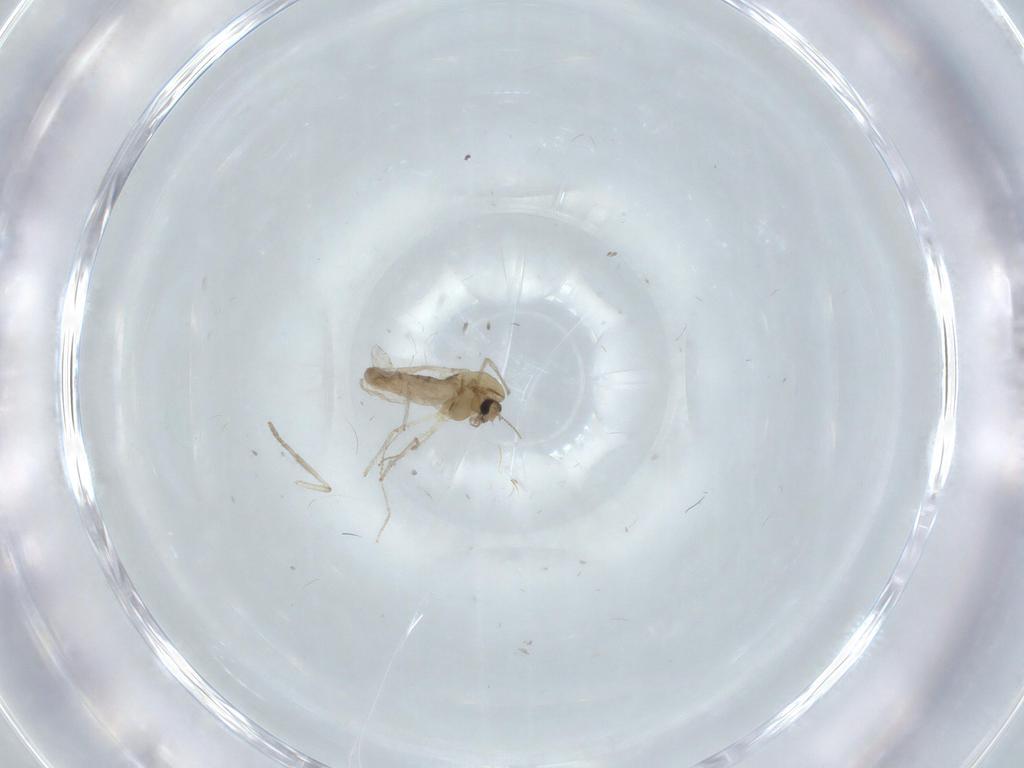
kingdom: Animalia
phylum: Arthropoda
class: Insecta
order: Diptera
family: Chironomidae
